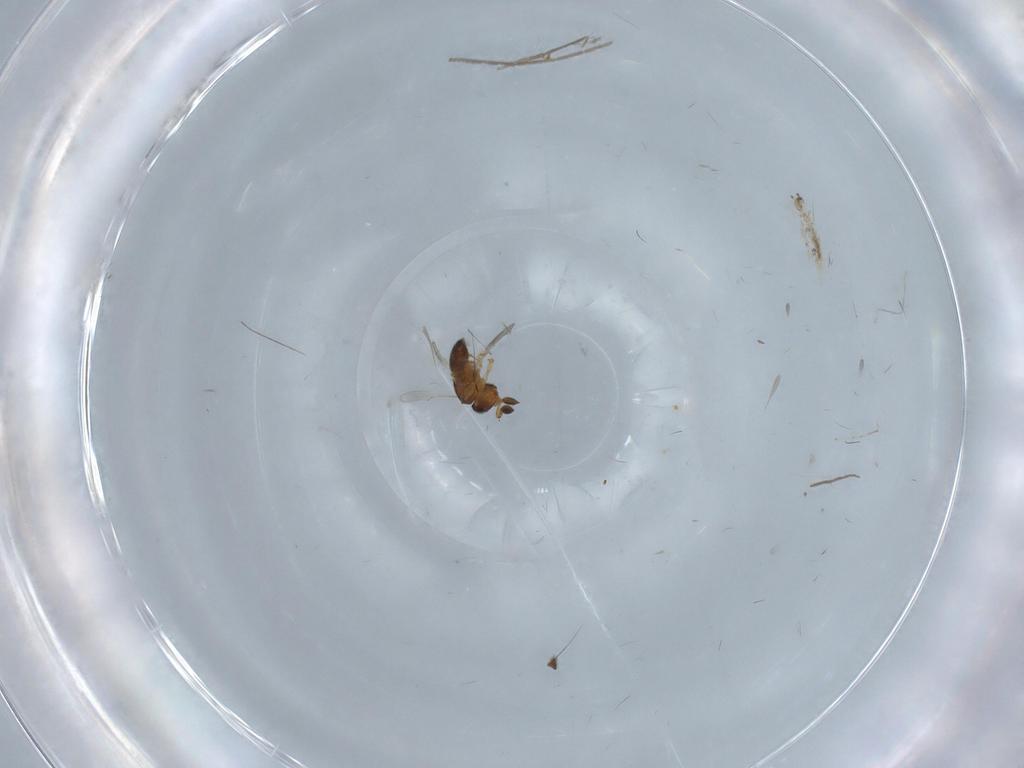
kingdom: Animalia
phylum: Arthropoda
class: Insecta
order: Hymenoptera
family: Scelionidae
